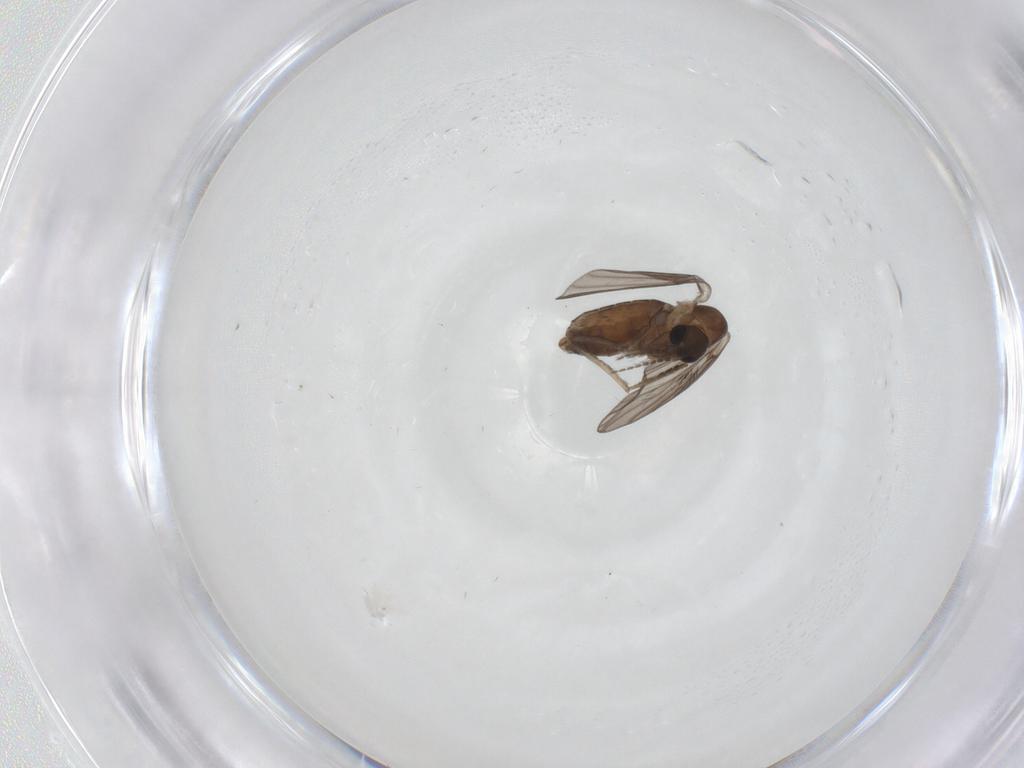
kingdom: Animalia
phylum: Arthropoda
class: Insecta
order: Diptera
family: Psychodidae
